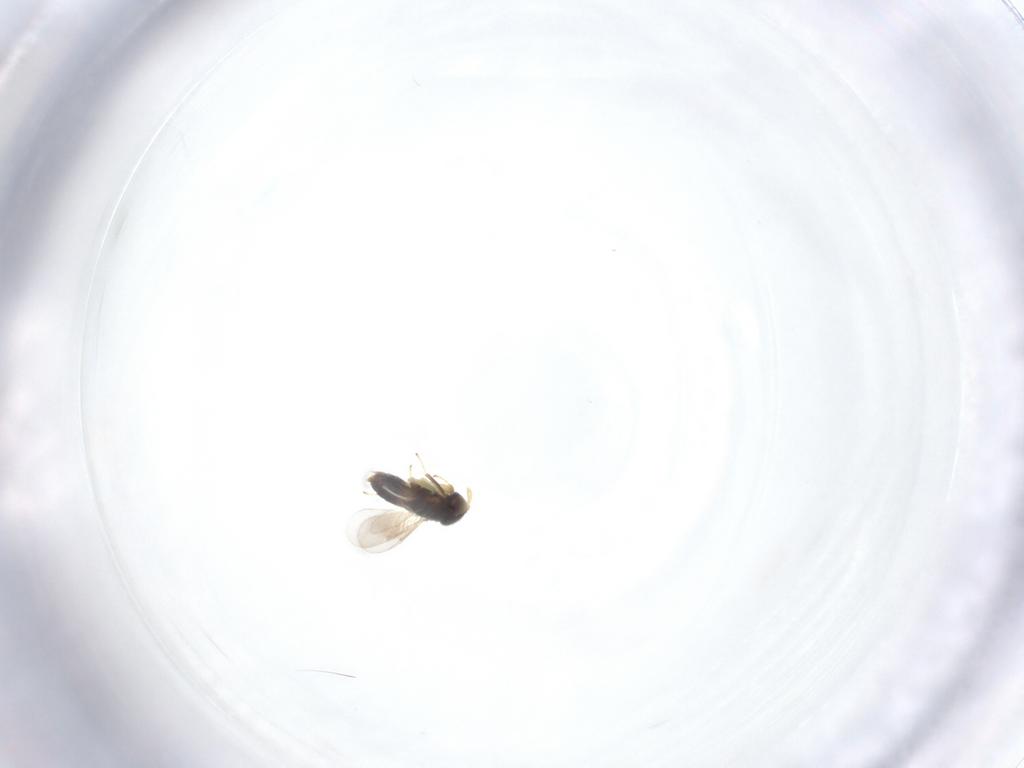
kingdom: Animalia
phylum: Arthropoda
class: Insecta
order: Hymenoptera
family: Aphelinidae
